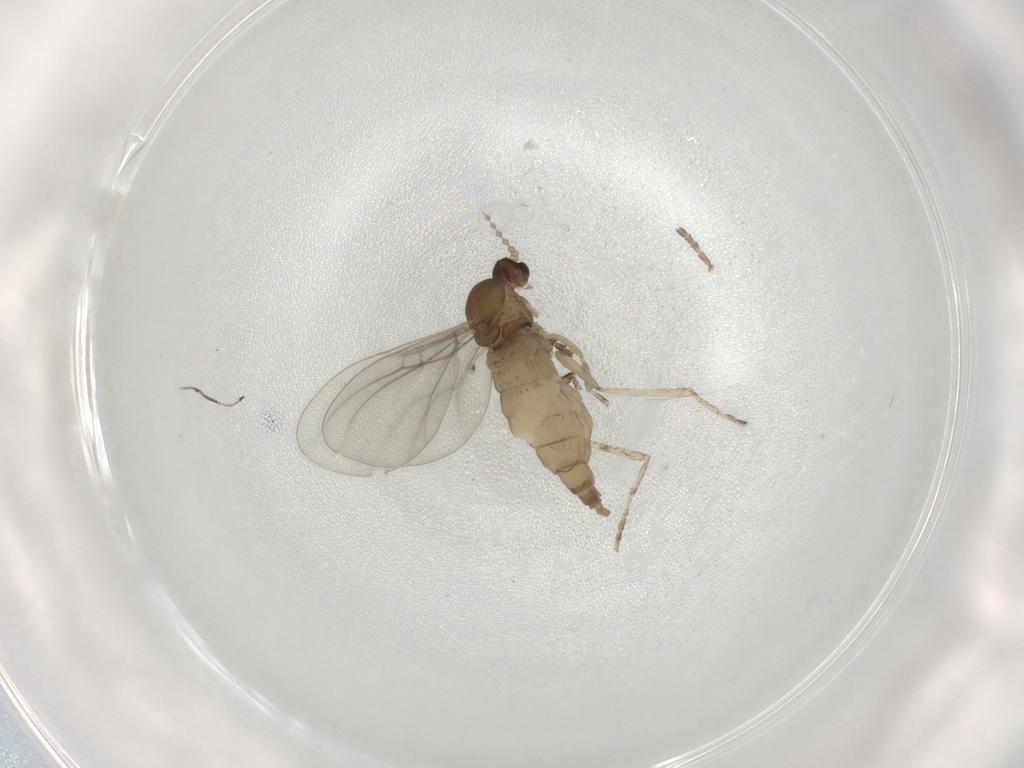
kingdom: Animalia
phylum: Arthropoda
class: Insecta
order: Diptera
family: Cecidomyiidae
